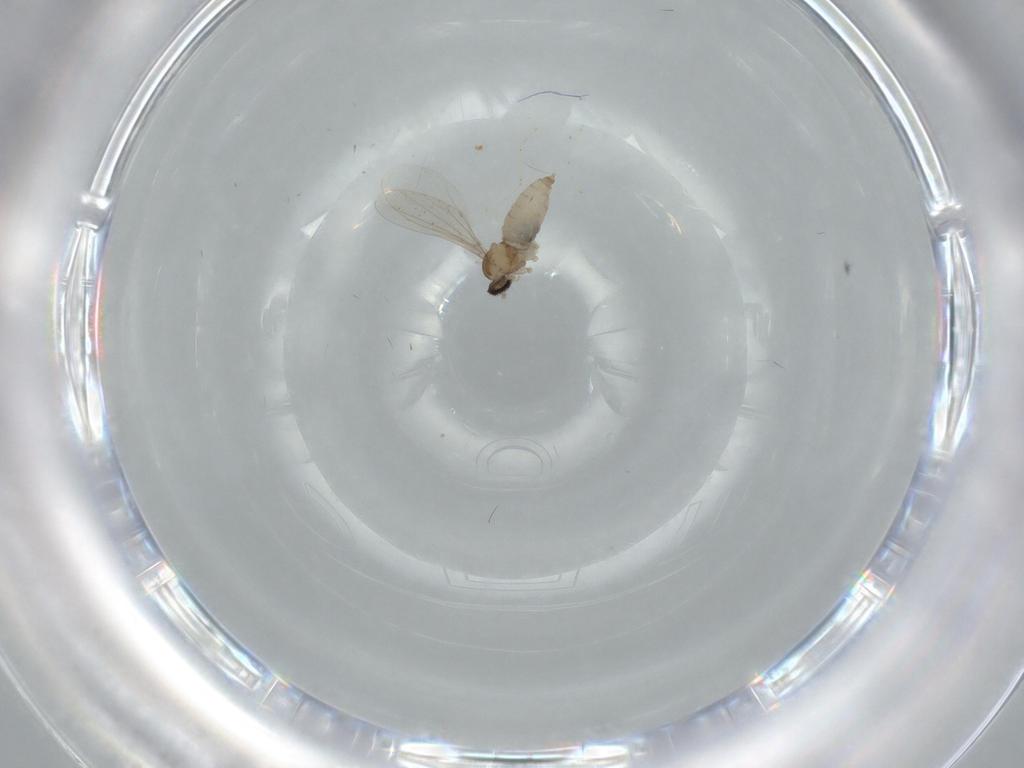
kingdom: Animalia
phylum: Arthropoda
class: Insecta
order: Diptera
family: Cecidomyiidae
